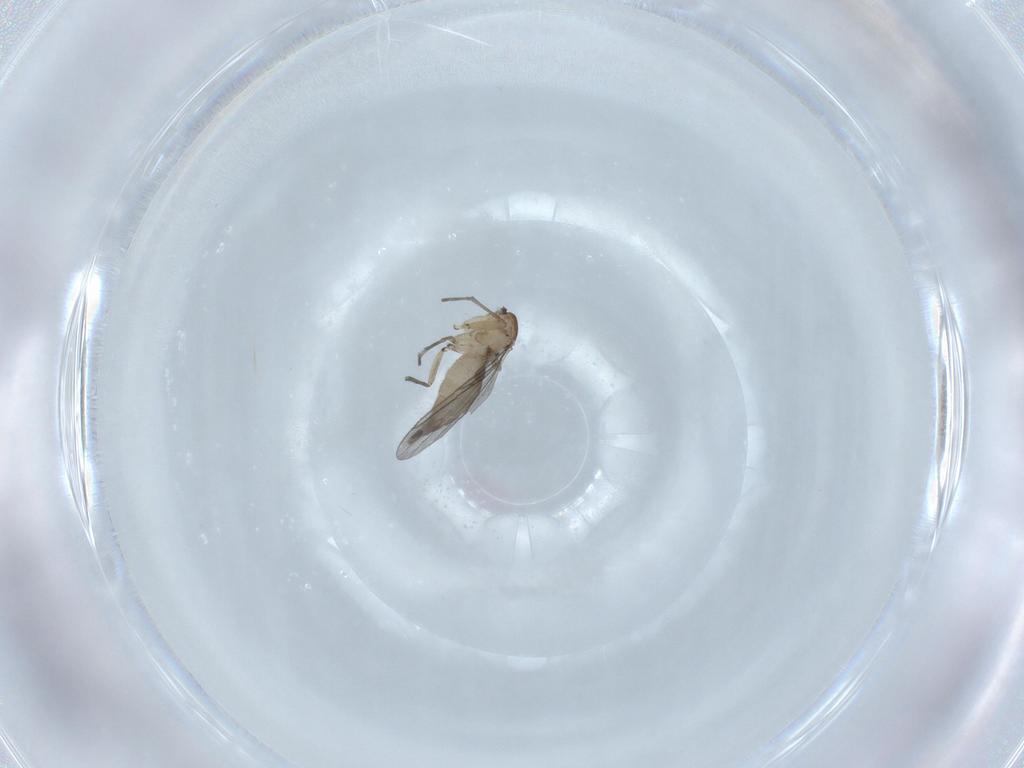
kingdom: Animalia
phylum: Arthropoda
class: Insecta
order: Diptera
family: Sciaridae
